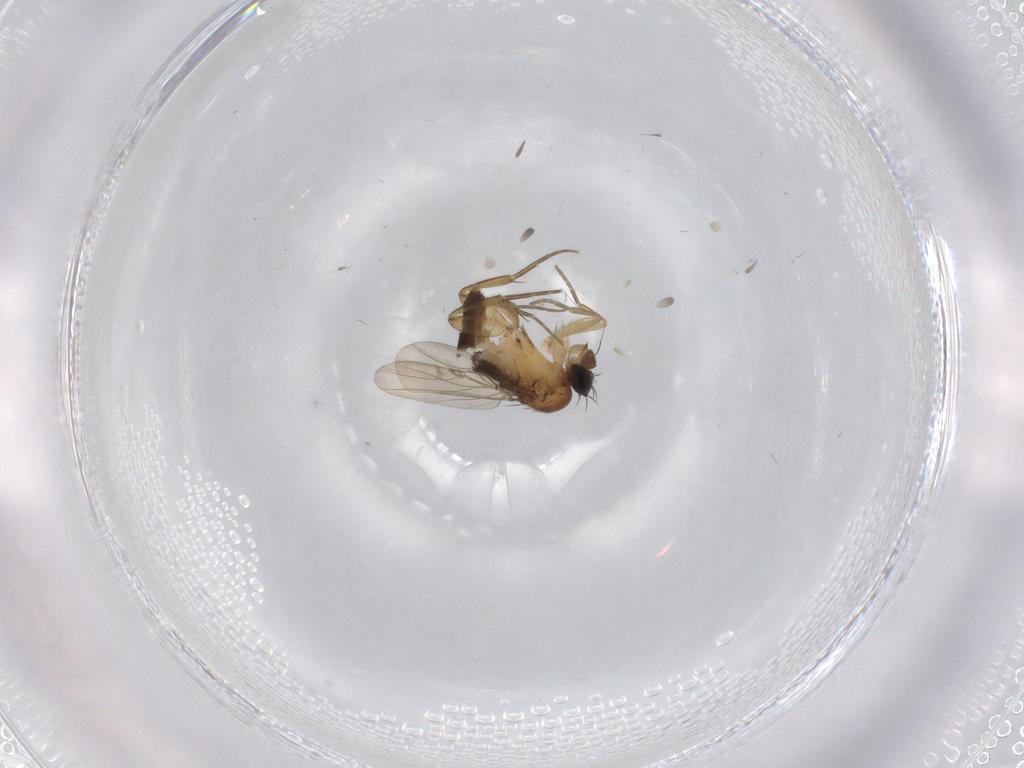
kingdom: Animalia
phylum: Arthropoda
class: Insecta
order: Diptera
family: Phoridae
